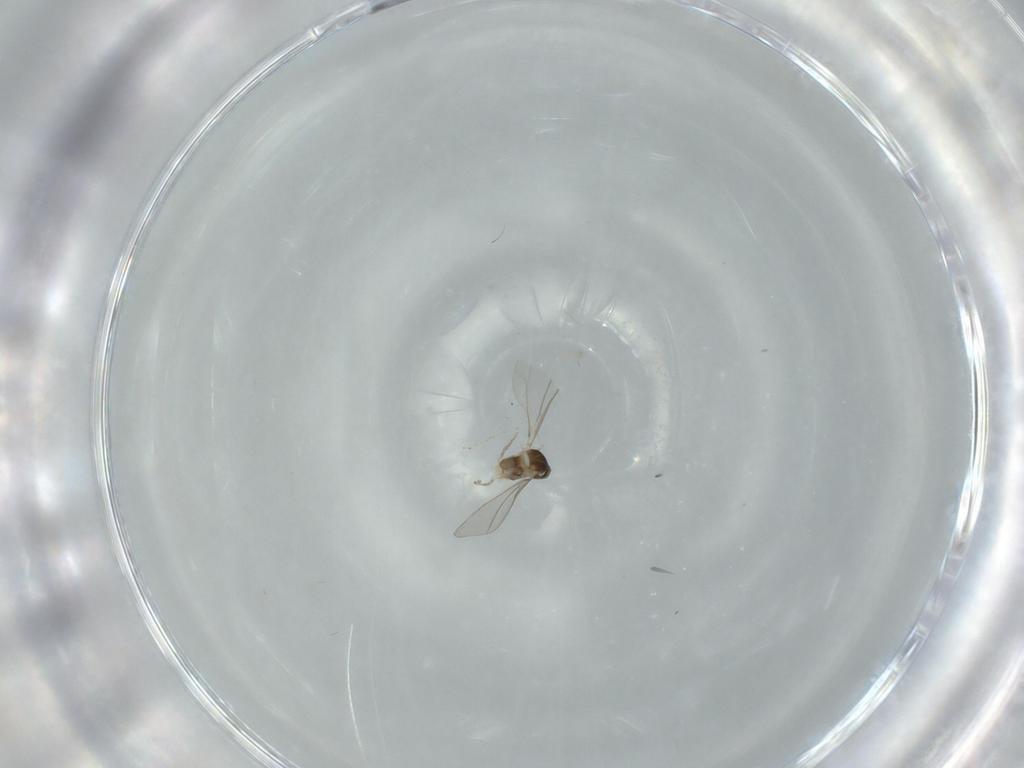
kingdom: Animalia
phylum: Arthropoda
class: Insecta
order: Diptera
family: Cecidomyiidae
